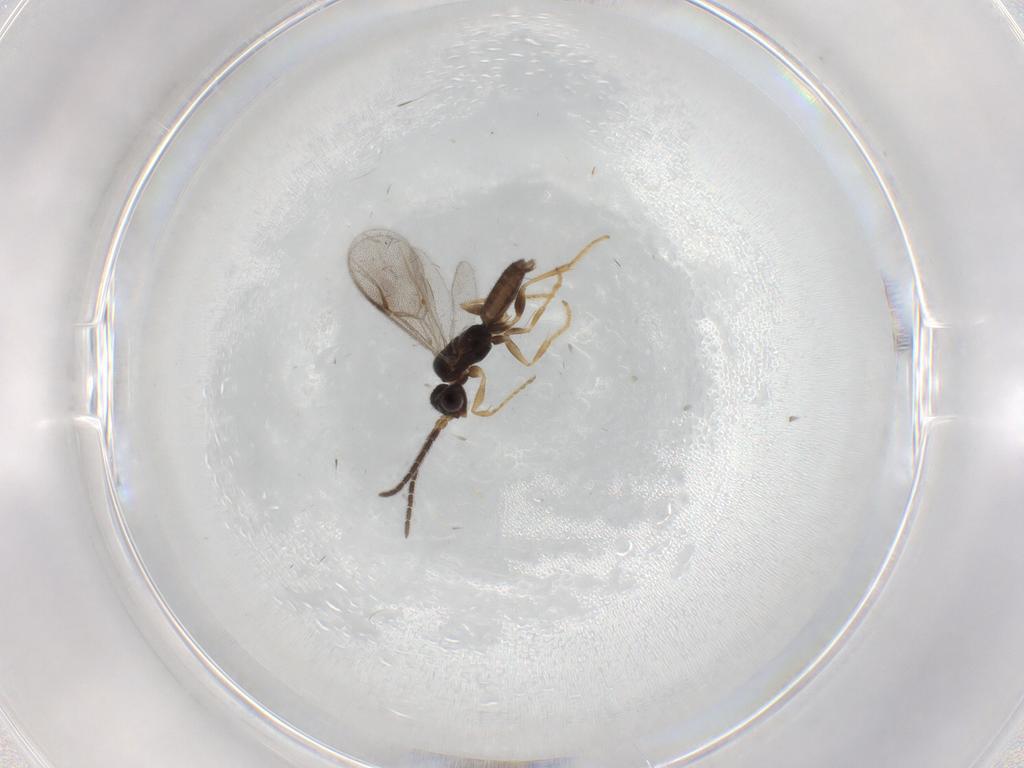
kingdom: Animalia
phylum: Arthropoda
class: Insecta
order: Hymenoptera
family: Dryinidae
